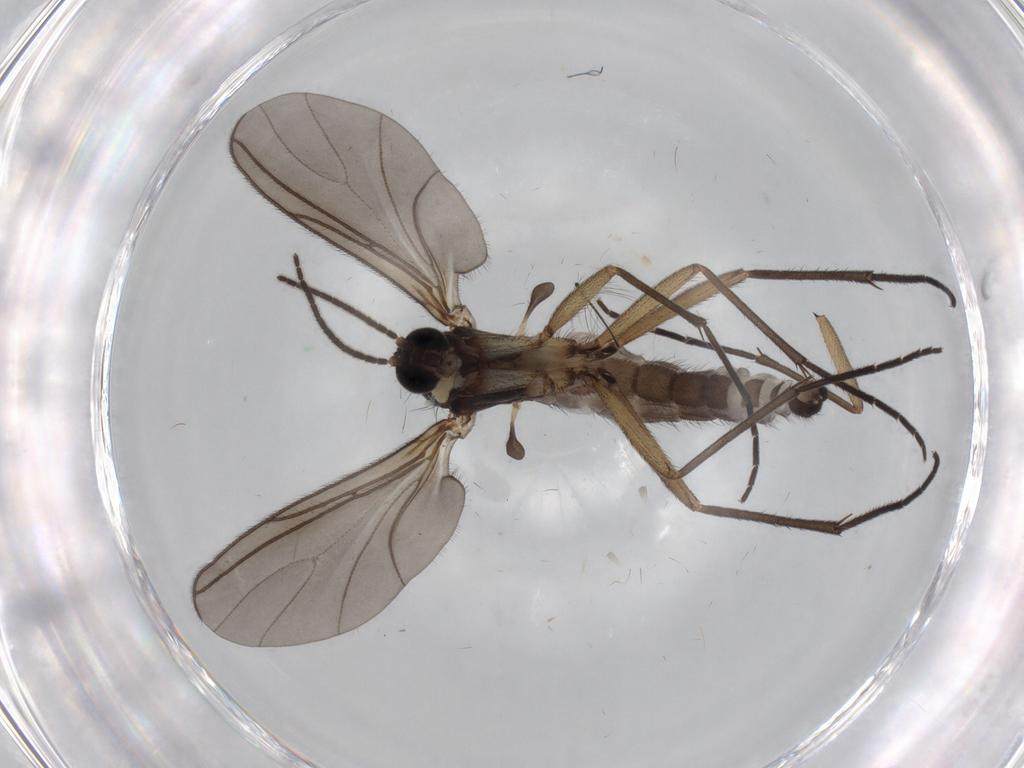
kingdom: Animalia
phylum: Arthropoda
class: Insecta
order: Diptera
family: Sciaridae
